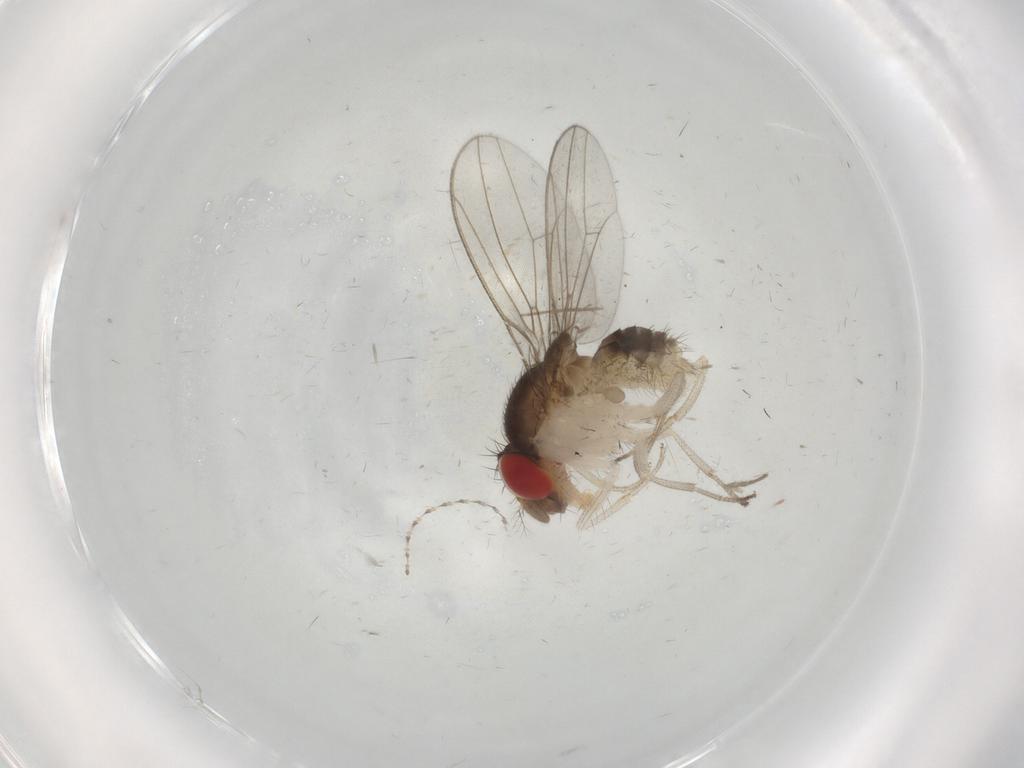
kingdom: Animalia
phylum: Arthropoda
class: Insecta
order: Diptera
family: Drosophilidae
